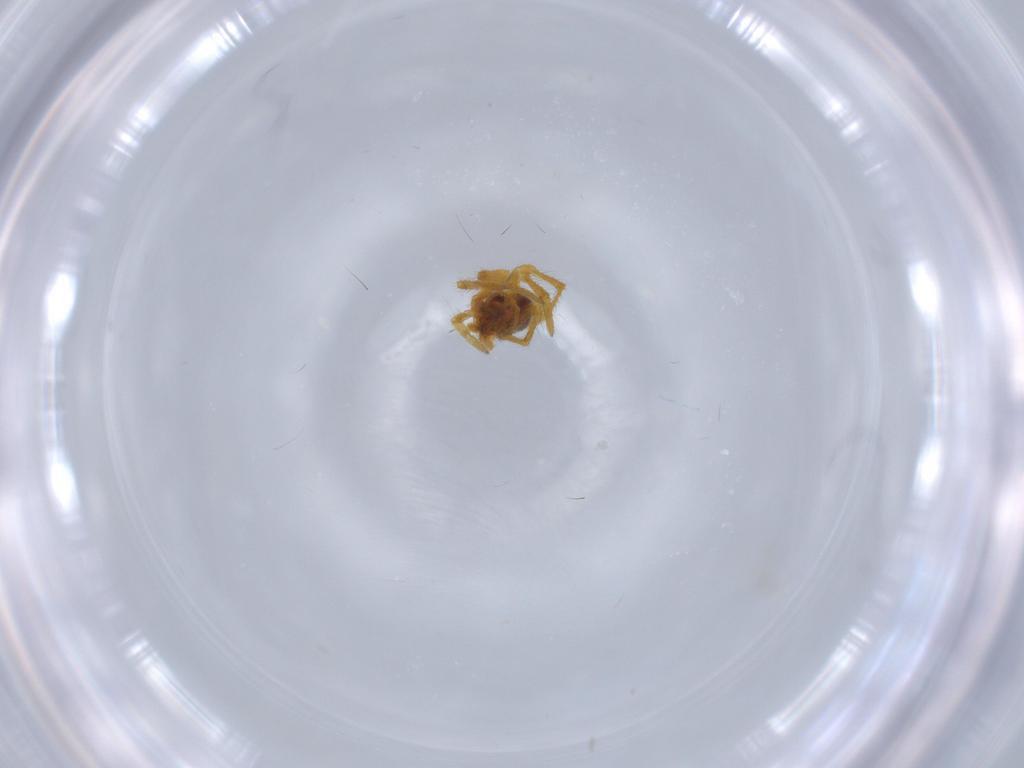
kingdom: Animalia
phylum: Arthropoda
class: Arachnida
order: Araneae
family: Theridiidae
